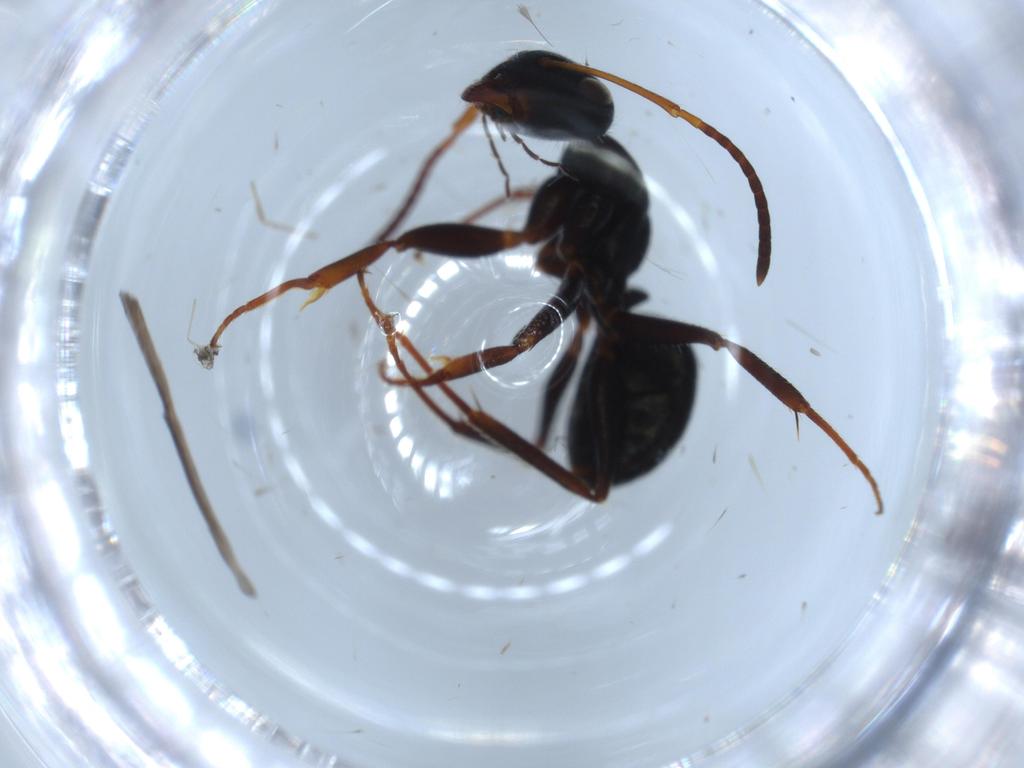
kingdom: Animalia
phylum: Arthropoda
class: Insecta
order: Hymenoptera
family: Formicidae
